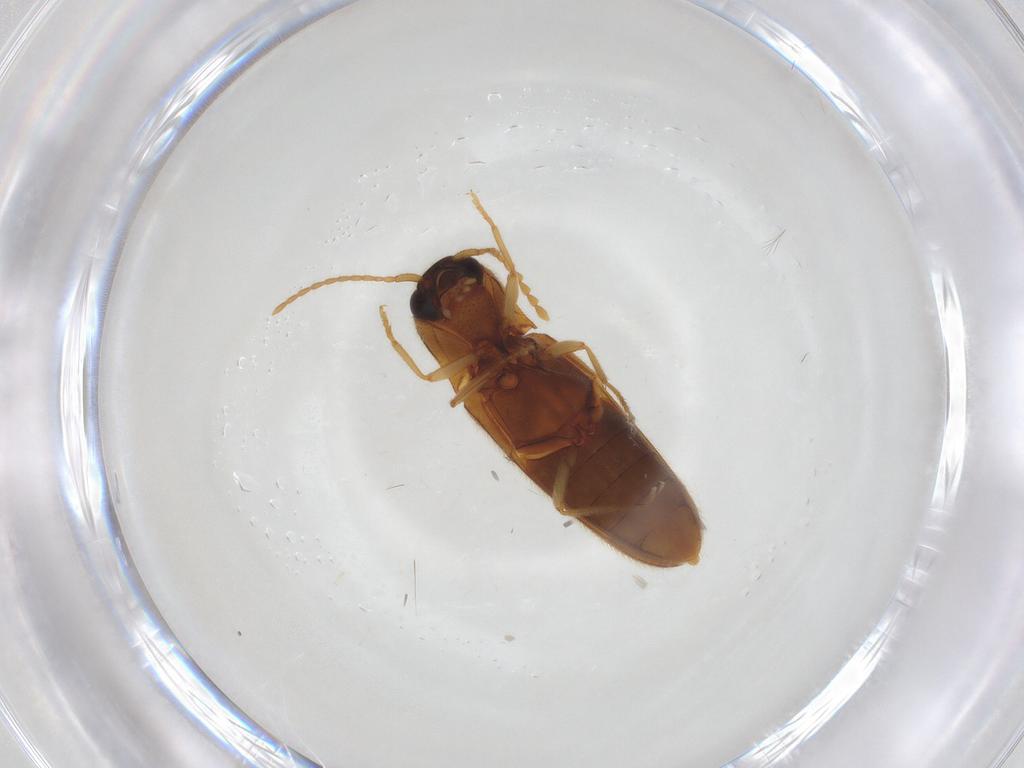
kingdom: Animalia
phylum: Arthropoda
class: Insecta
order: Coleoptera
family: Elateridae
